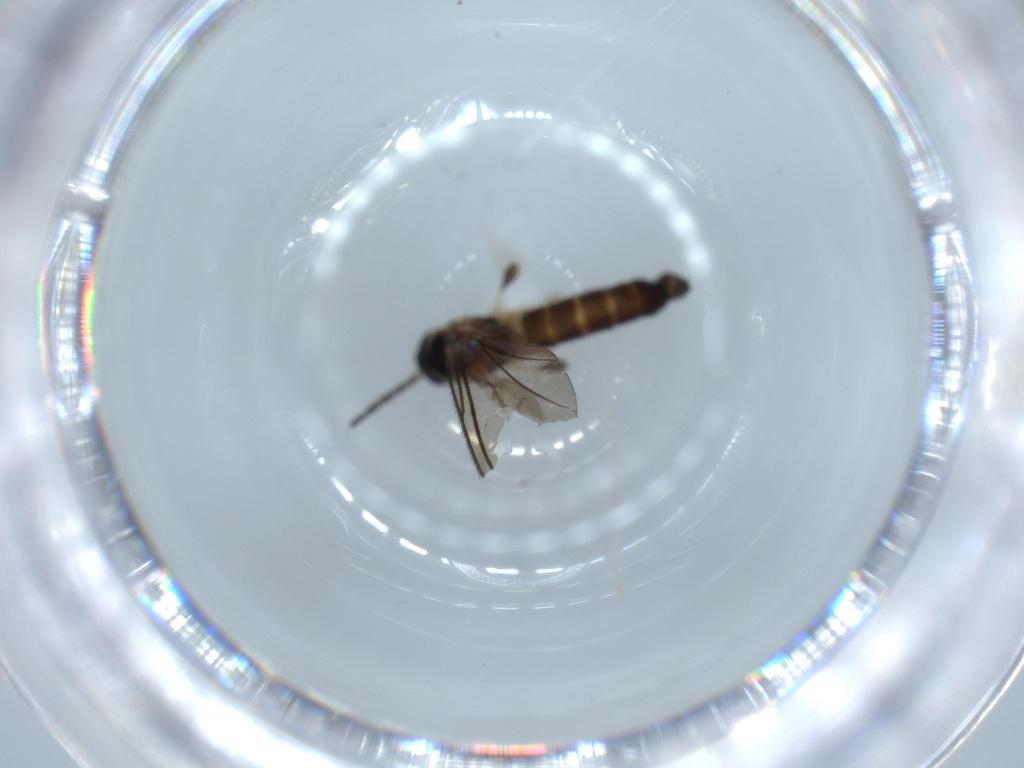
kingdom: Animalia
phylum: Arthropoda
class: Insecta
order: Diptera
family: Sciaridae
